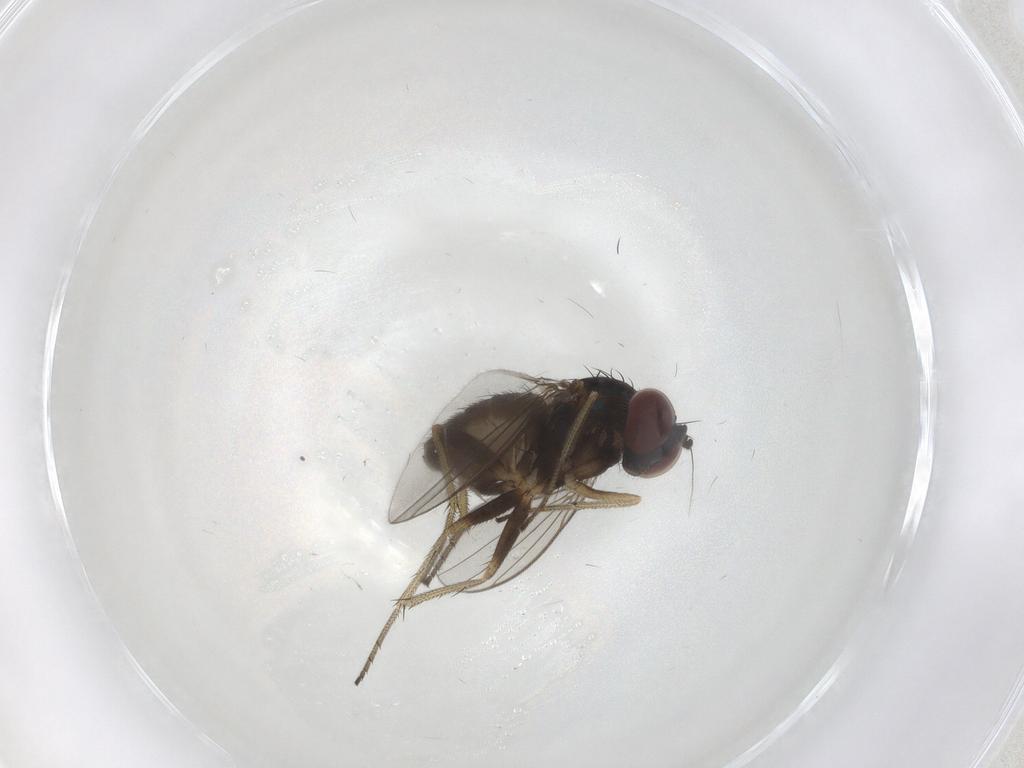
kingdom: Animalia
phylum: Arthropoda
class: Insecta
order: Diptera
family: Dolichopodidae
